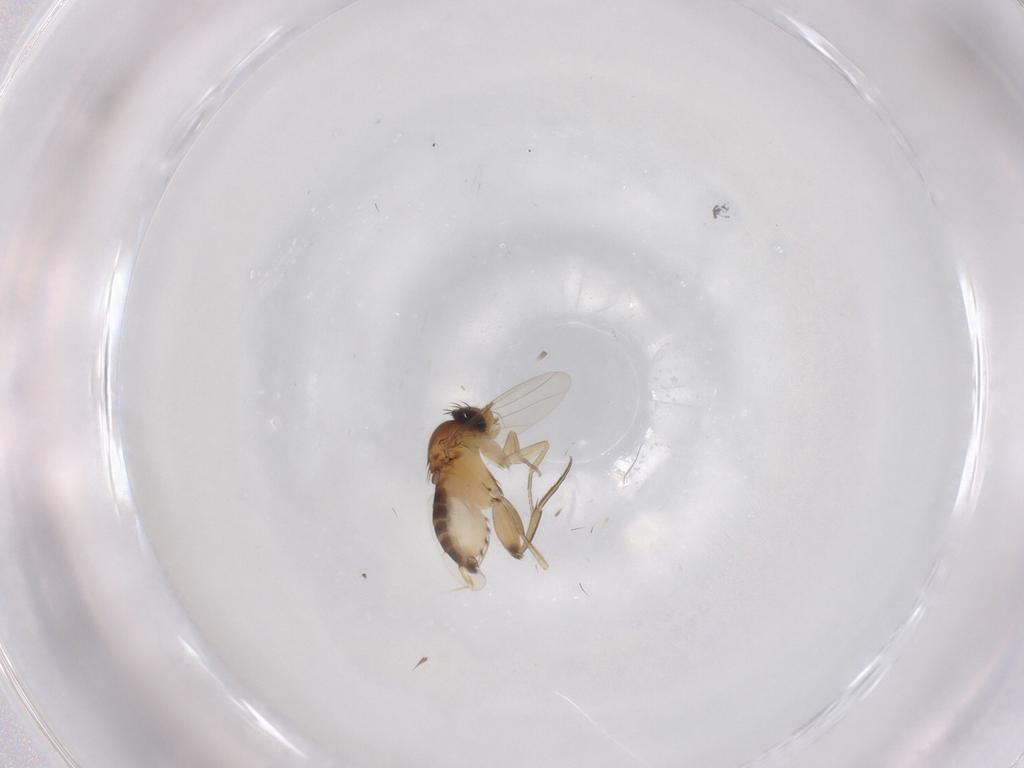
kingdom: Animalia
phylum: Arthropoda
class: Insecta
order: Diptera
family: Phoridae
